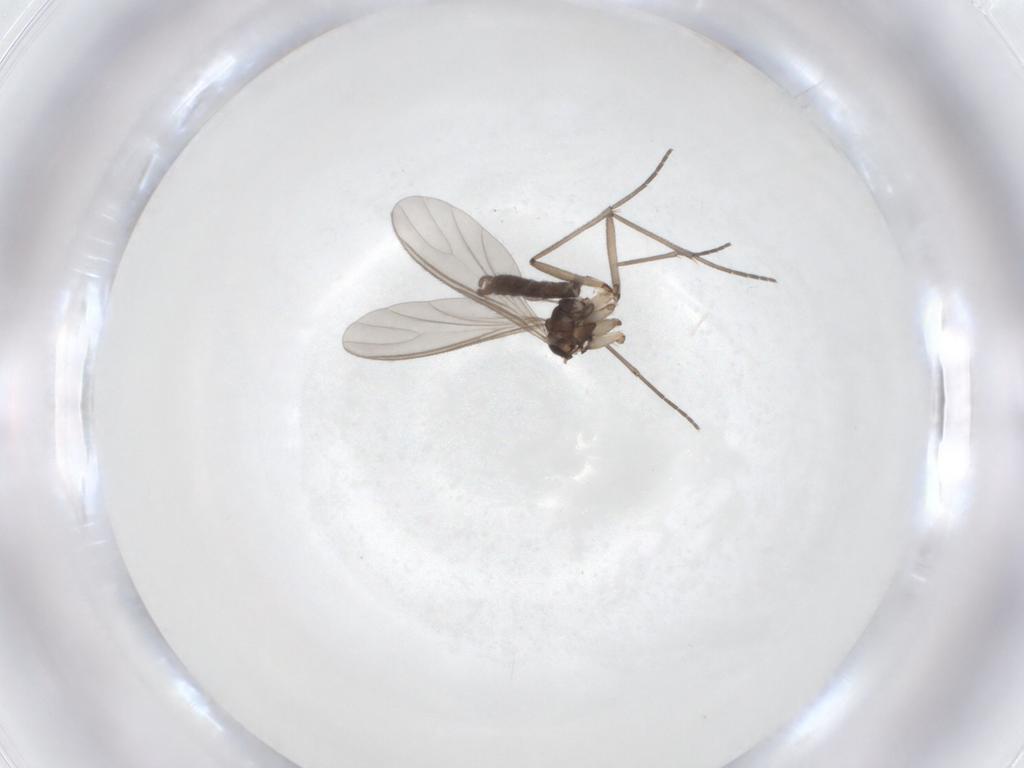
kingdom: Animalia
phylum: Arthropoda
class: Insecta
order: Diptera
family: Sciaridae
